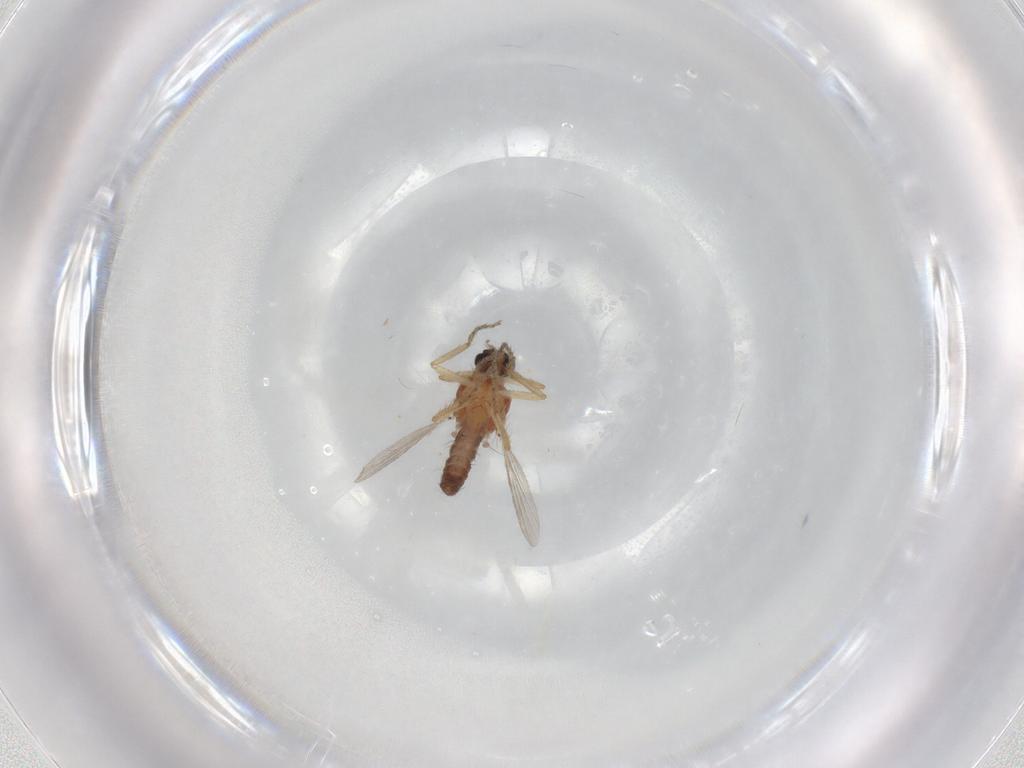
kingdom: Animalia
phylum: Arthropoda
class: Insecta
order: Diptera
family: Ceratopogonidae
